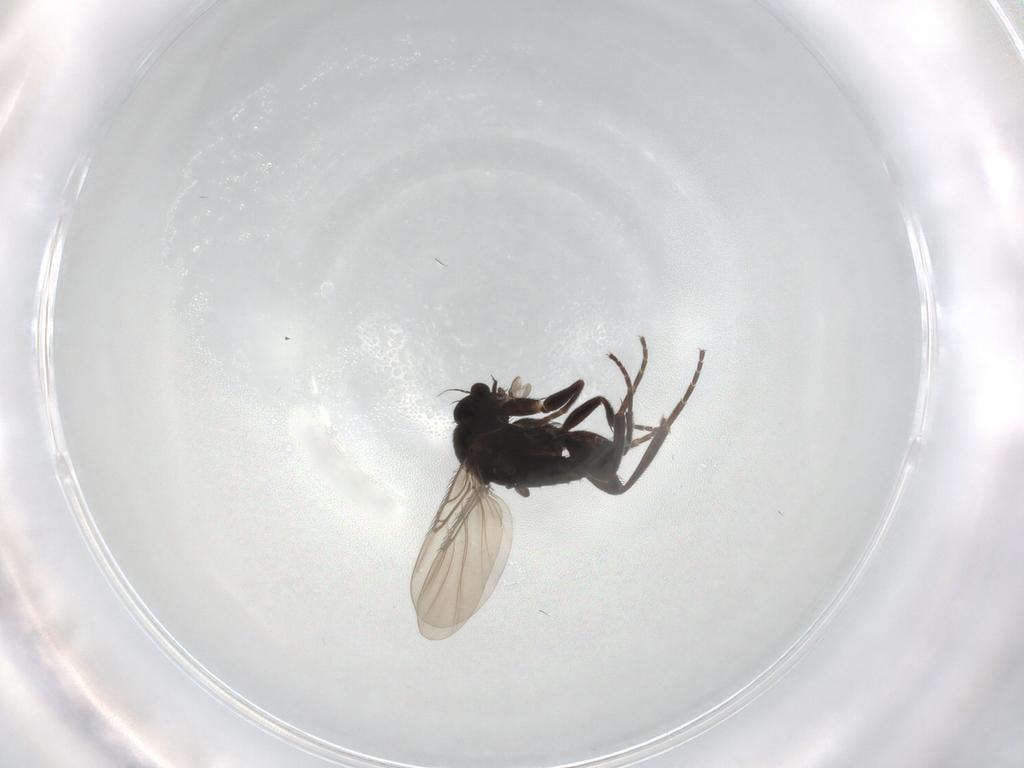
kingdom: Animalia
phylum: Arthropoda
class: Insecta
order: Diptera
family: Phoridae
